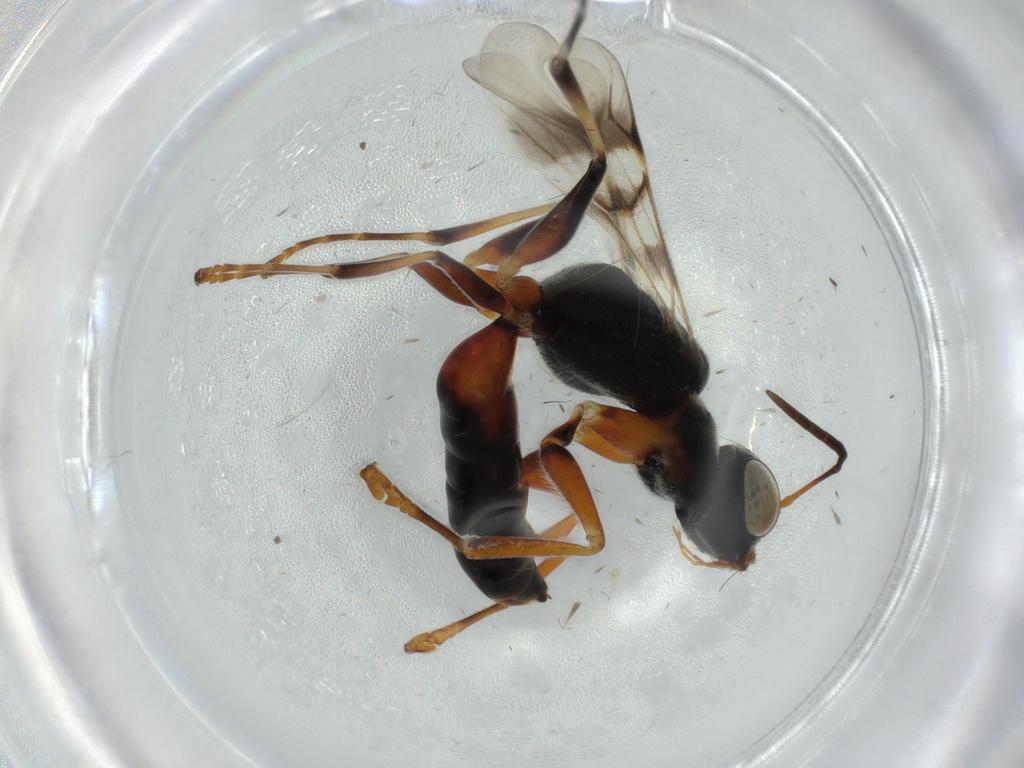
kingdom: Animalia
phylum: Arthropoda
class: Insecta
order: Hymenoptera
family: Dryinidae
